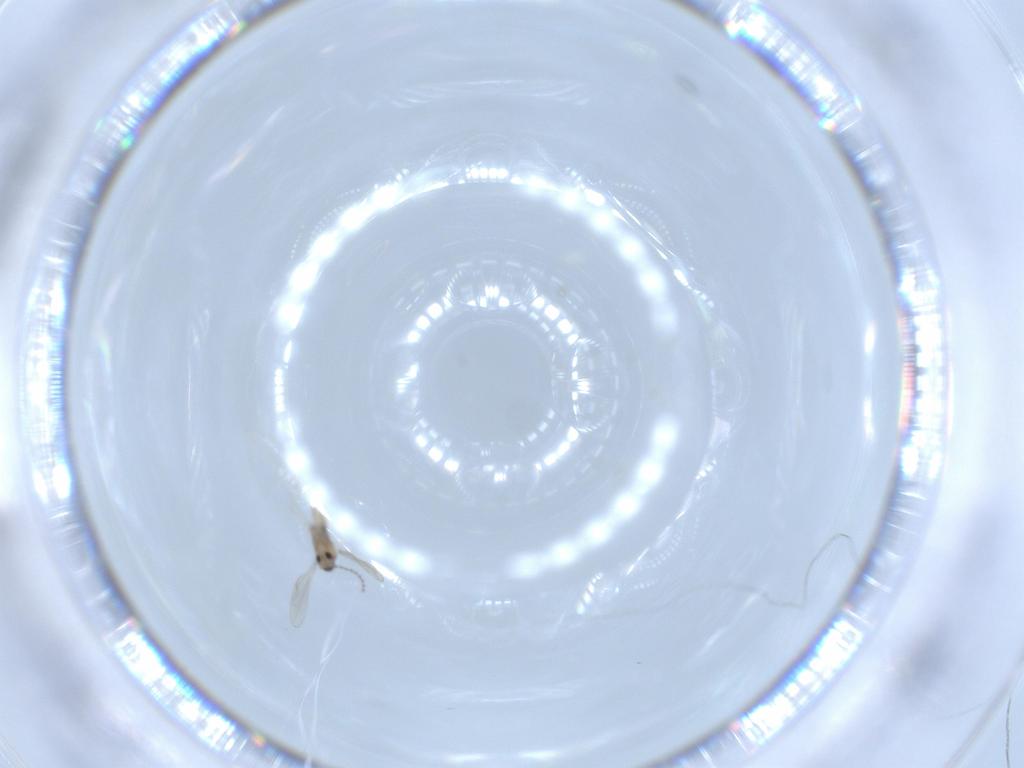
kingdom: Animalia
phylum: Arthropoda
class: Insecta
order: Diptera
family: Cecidomyiidae
